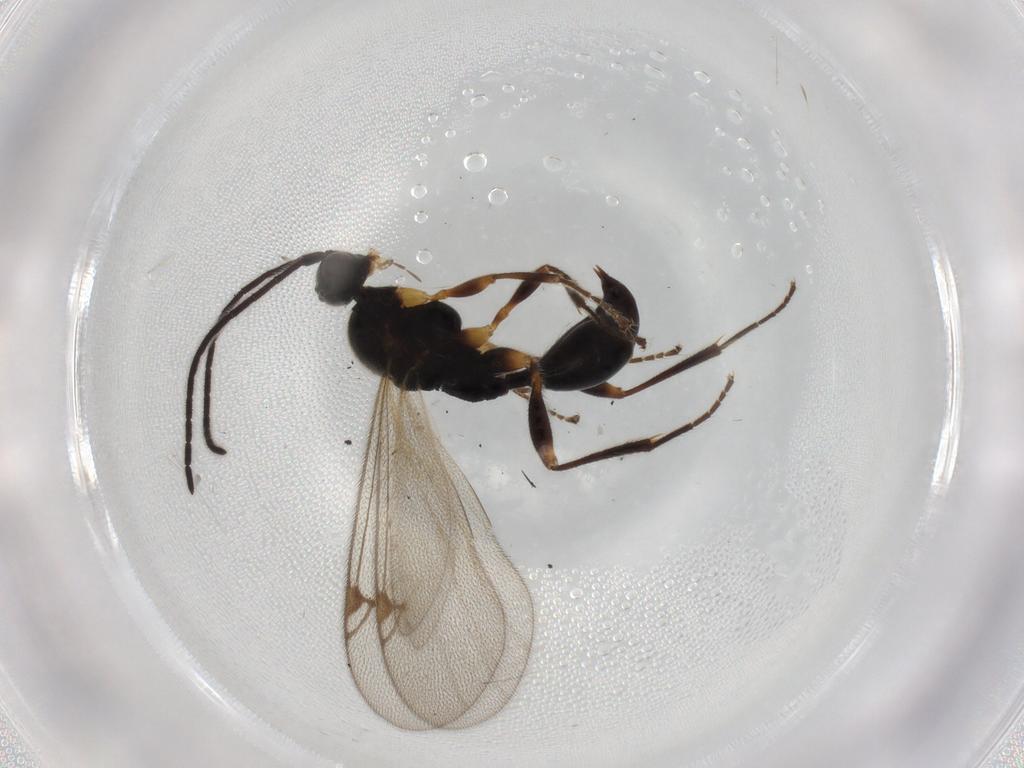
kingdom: Animalia
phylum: Arthropoda
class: Insecta
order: Hymenoptera
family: Proctotrupidae
